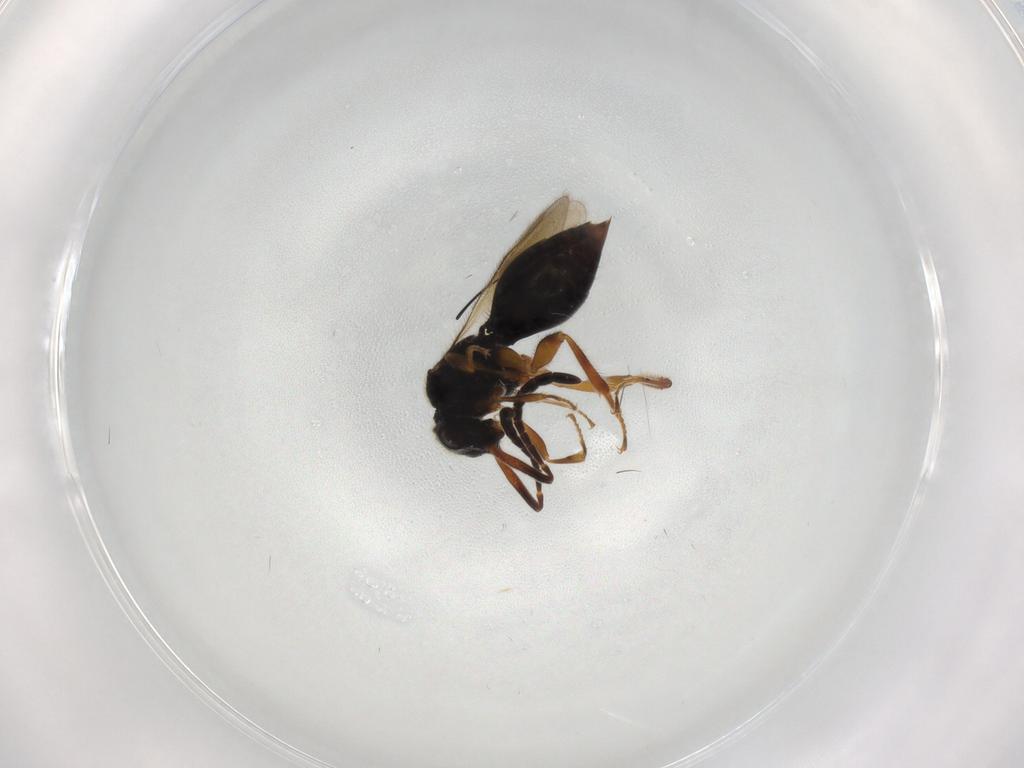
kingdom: Animalia
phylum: Arthropoda
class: Insecta
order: Hymenoptera
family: Bethylidae
